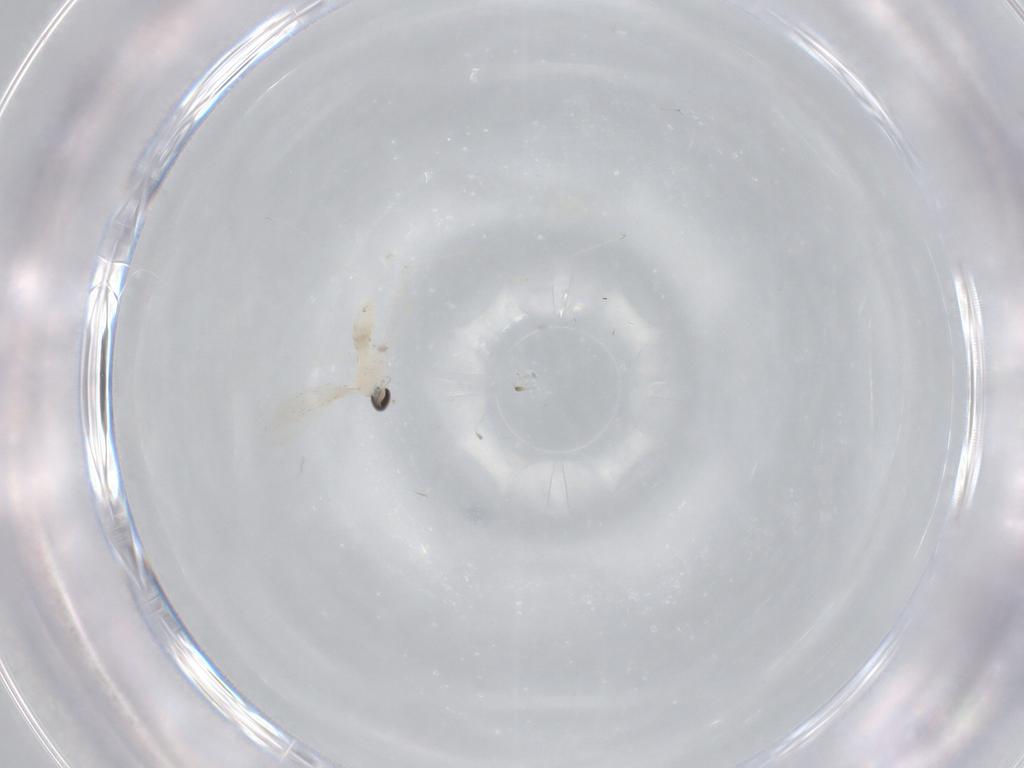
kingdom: Animalia
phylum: Arthropoda
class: Insecta
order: Diptera
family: Cecidomyiidae
